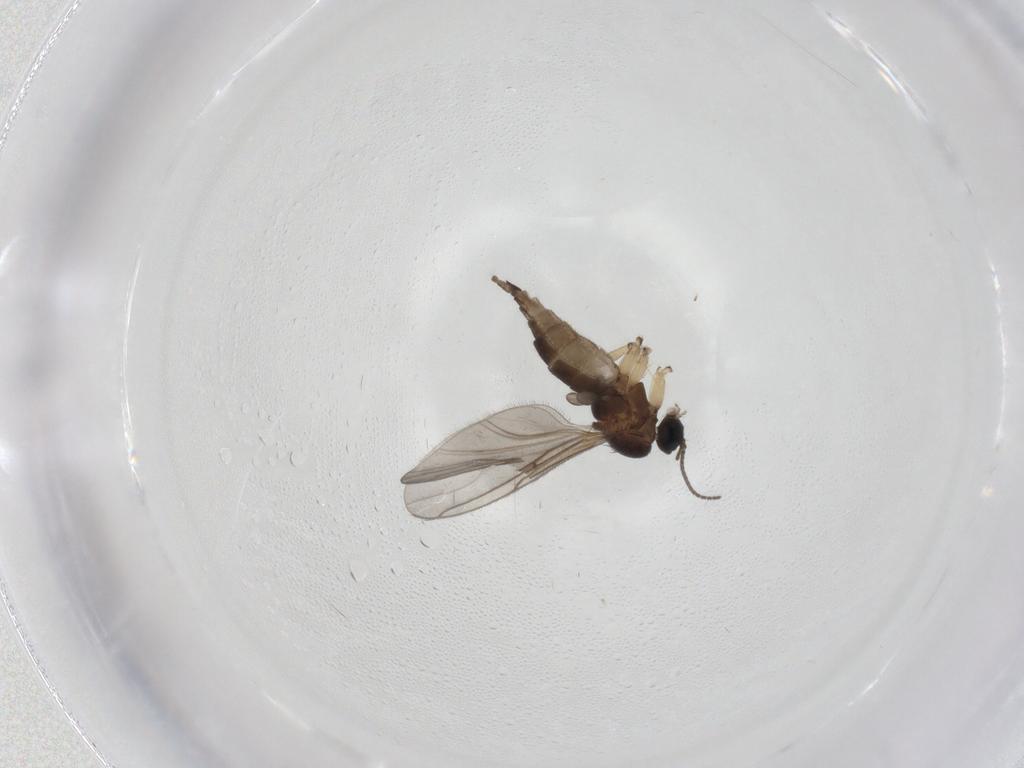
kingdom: Animalia
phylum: Arthropoda
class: Insecta
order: Diptera
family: Sciaridae
